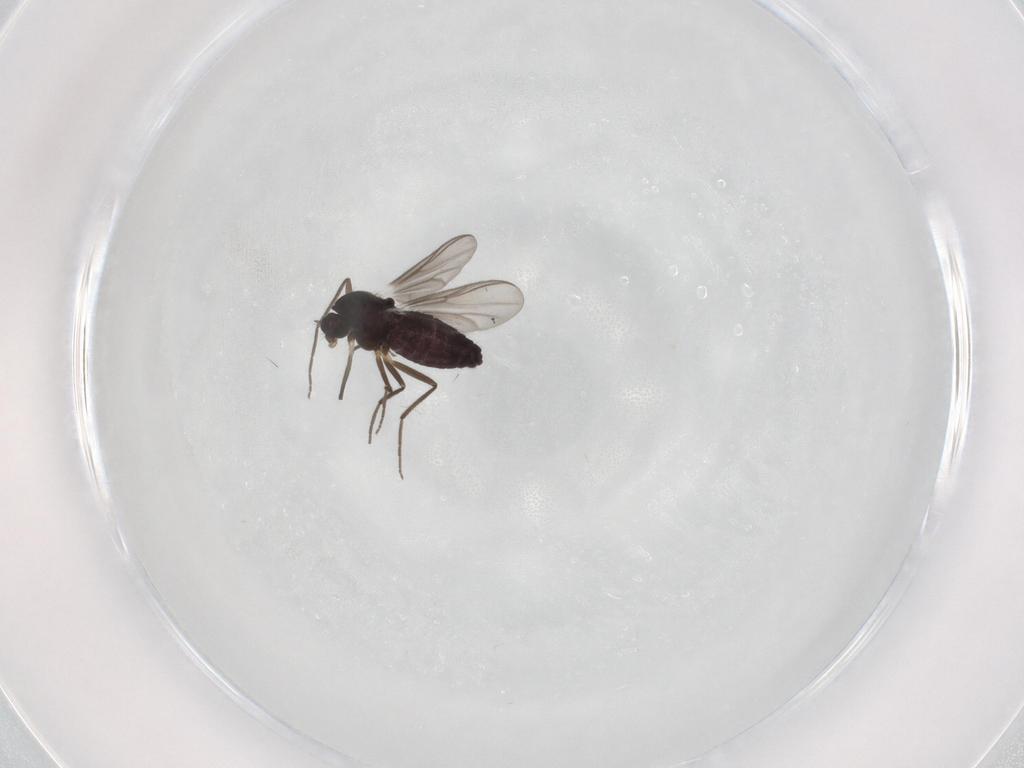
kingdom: Animalia
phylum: Arthropoda
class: Insecta
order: Diptera
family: Chironomidae
